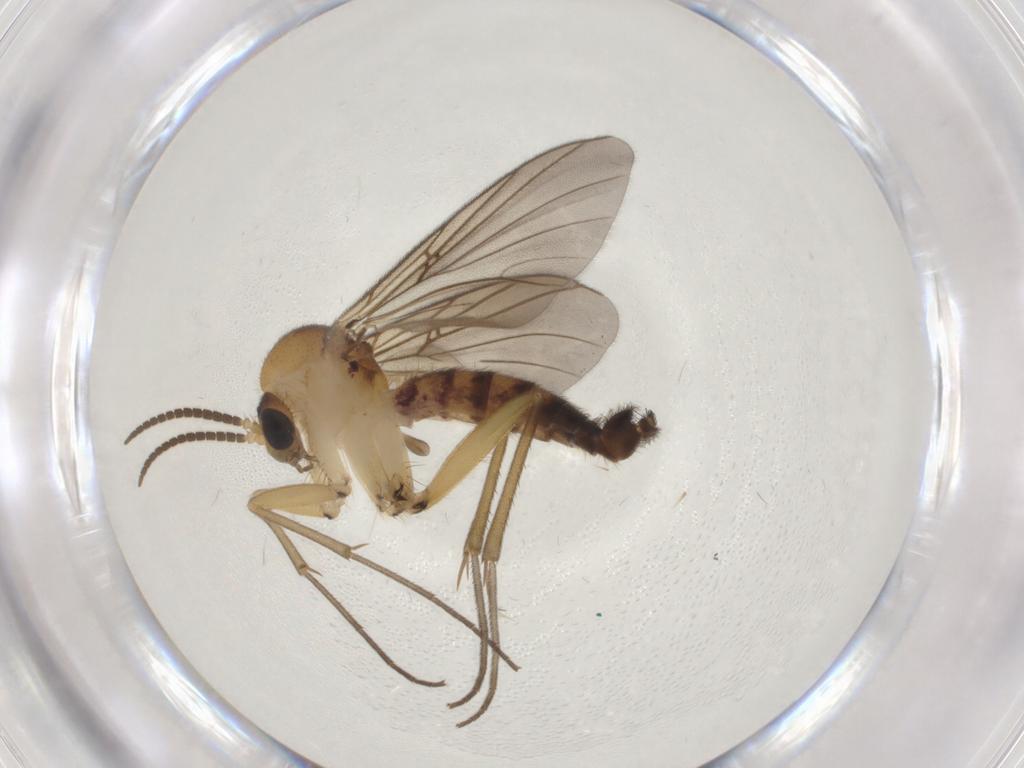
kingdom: Animalia
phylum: Arthropoda
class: Insecta
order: Diptera
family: Mycetophilidae
